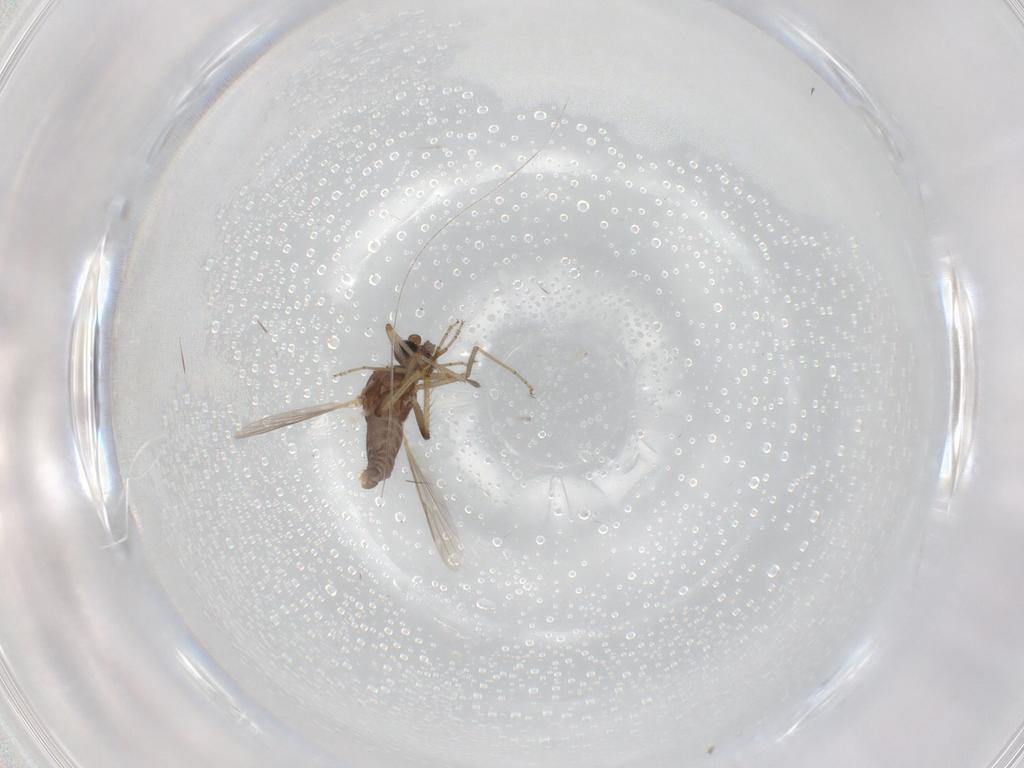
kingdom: Animalia
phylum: Arthropoda
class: Insecta
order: Diptera
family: Ceratopogonidae
